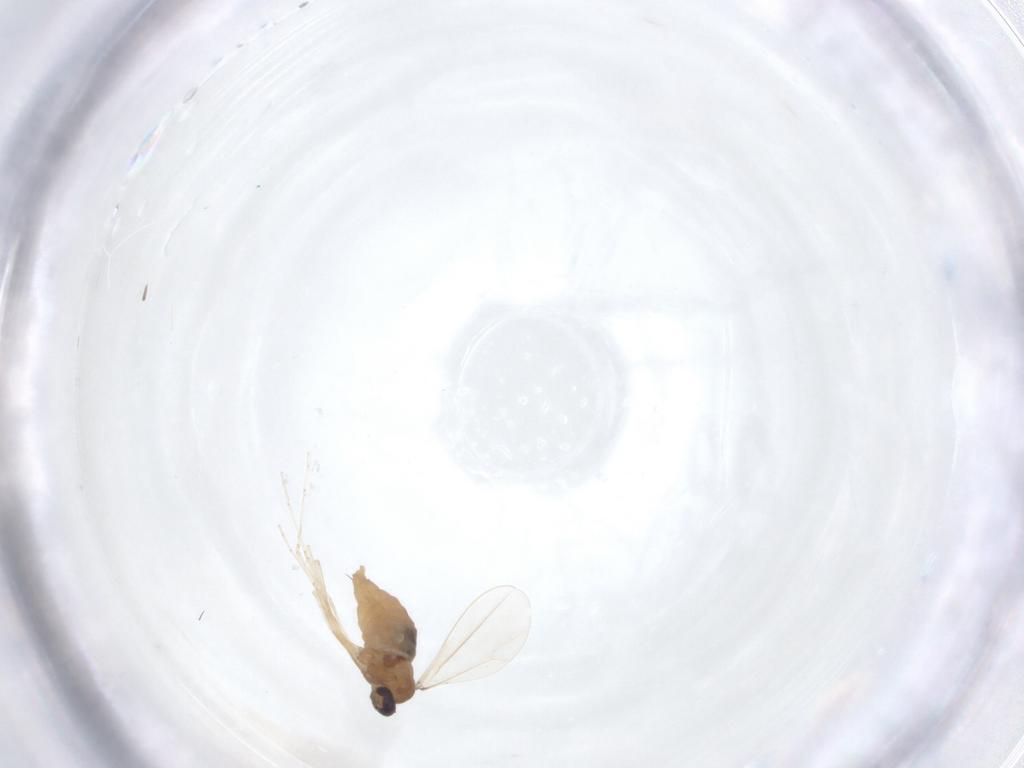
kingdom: Animalia
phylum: Arthropoda
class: Insecta
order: Diptera
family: Cecidomyiidae
